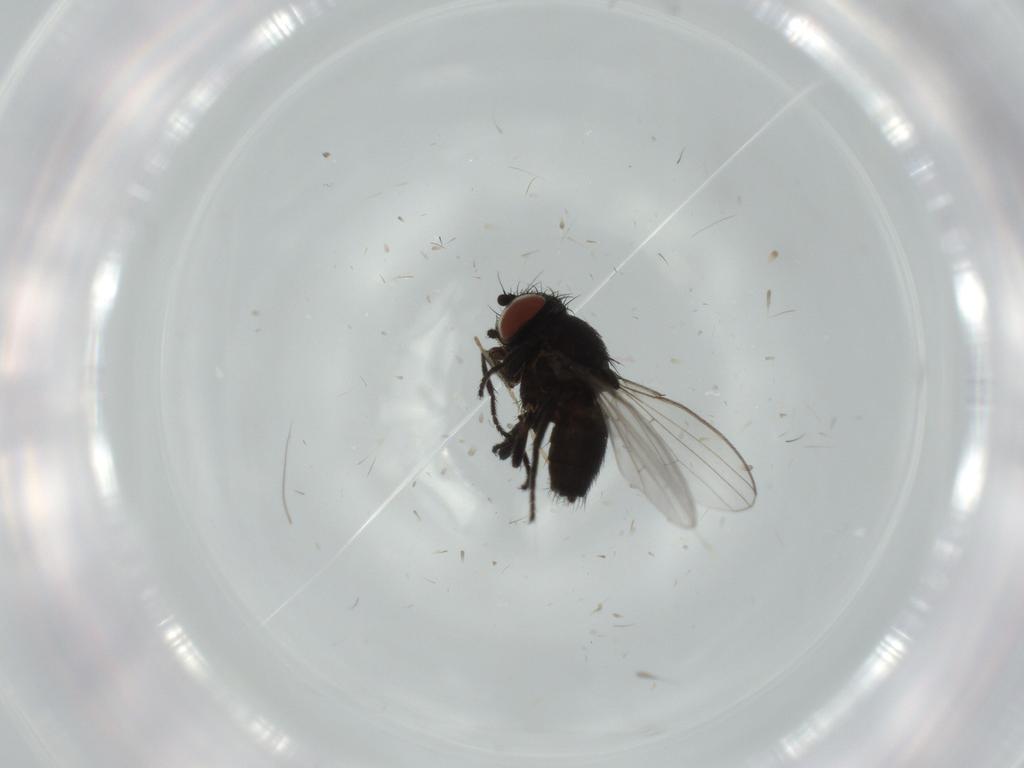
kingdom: Animalia
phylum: Arthropoda
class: Insecta
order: Diptera
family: Milichiidae
